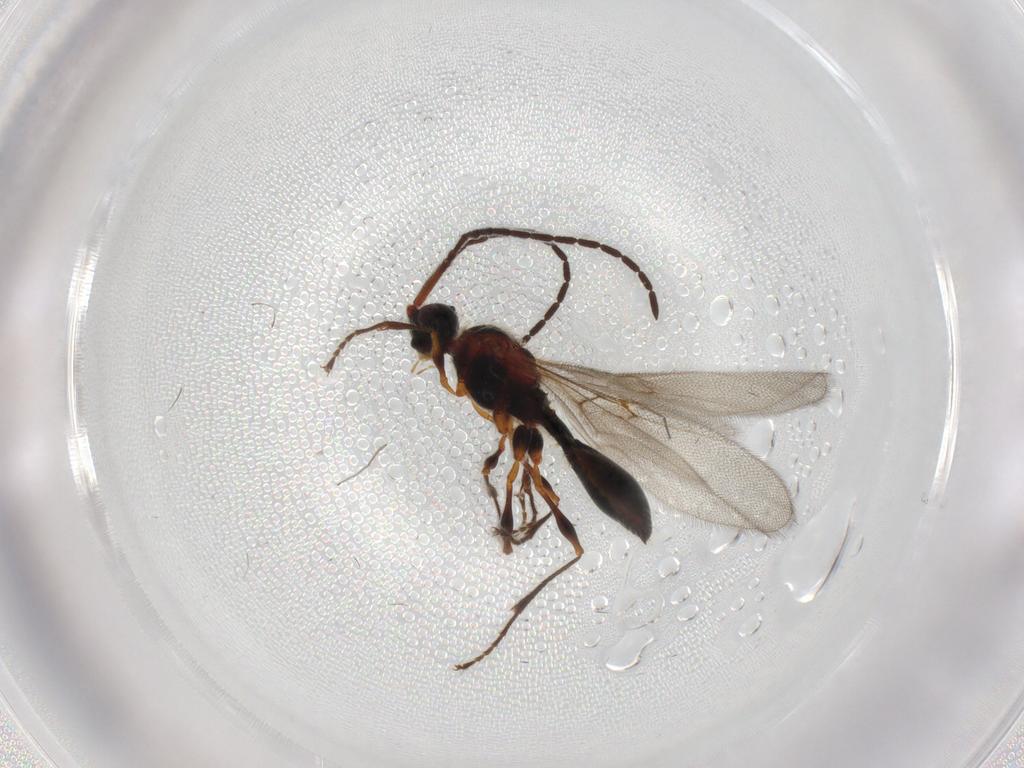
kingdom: Animalia
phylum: Arthropoda
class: Insecta
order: Hymenoptera
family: Diapriidae
